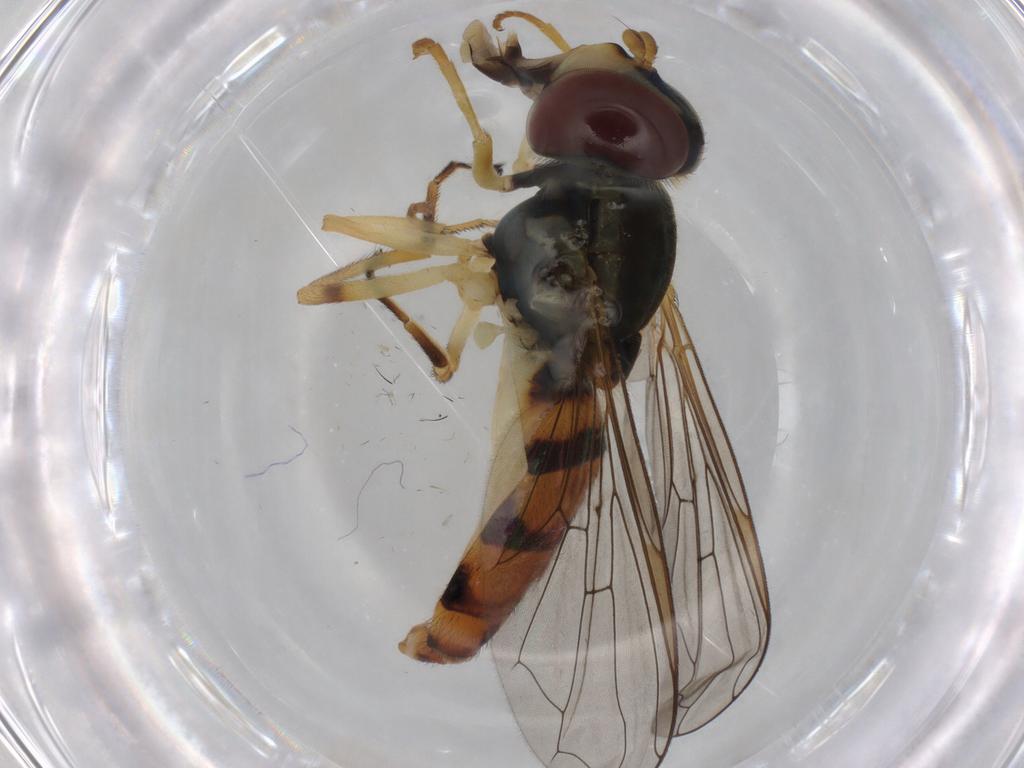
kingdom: Animalia
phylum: Arthropoda
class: Insecta
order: Diptera
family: Syrphidae
